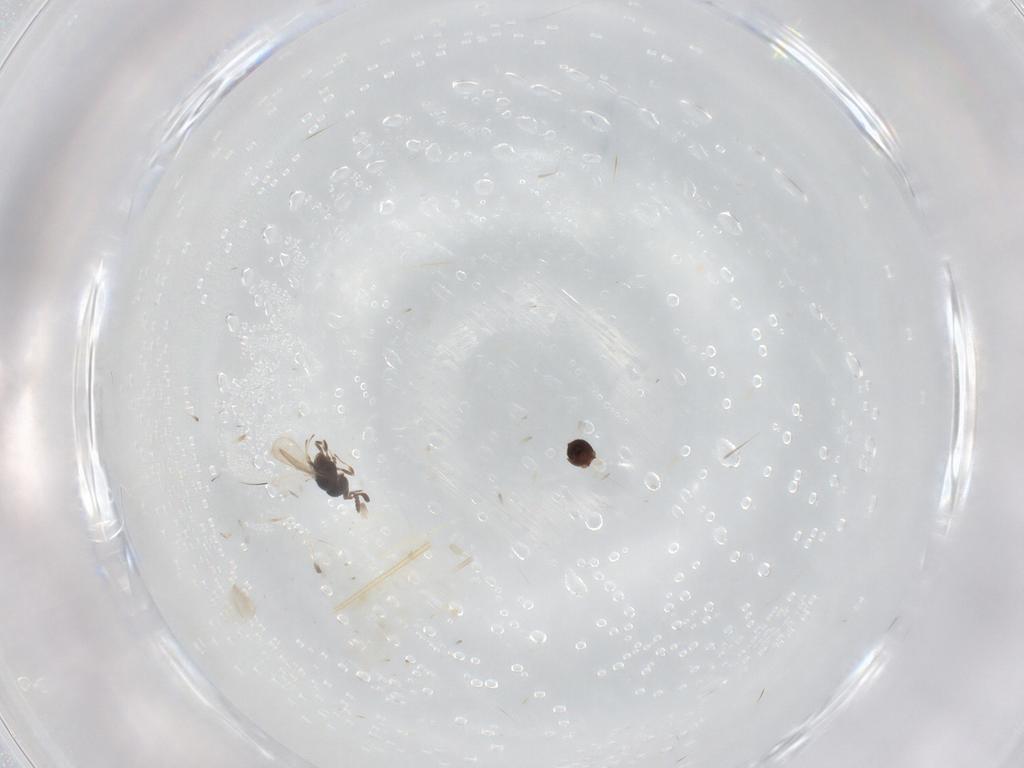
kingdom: Animalia
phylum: Arthropoda
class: Insecta
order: Hymenoptera
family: Scelionidae
